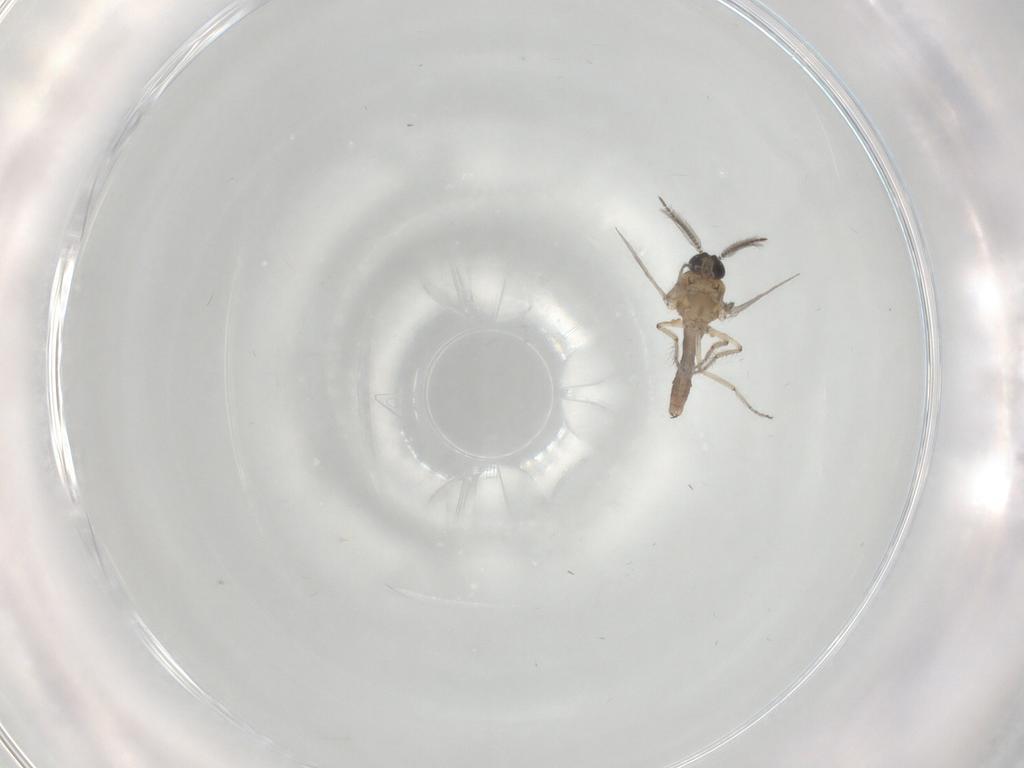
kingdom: Animalia
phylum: Arthropoda
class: Insecta
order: Diptera
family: Ceratopogonidae
